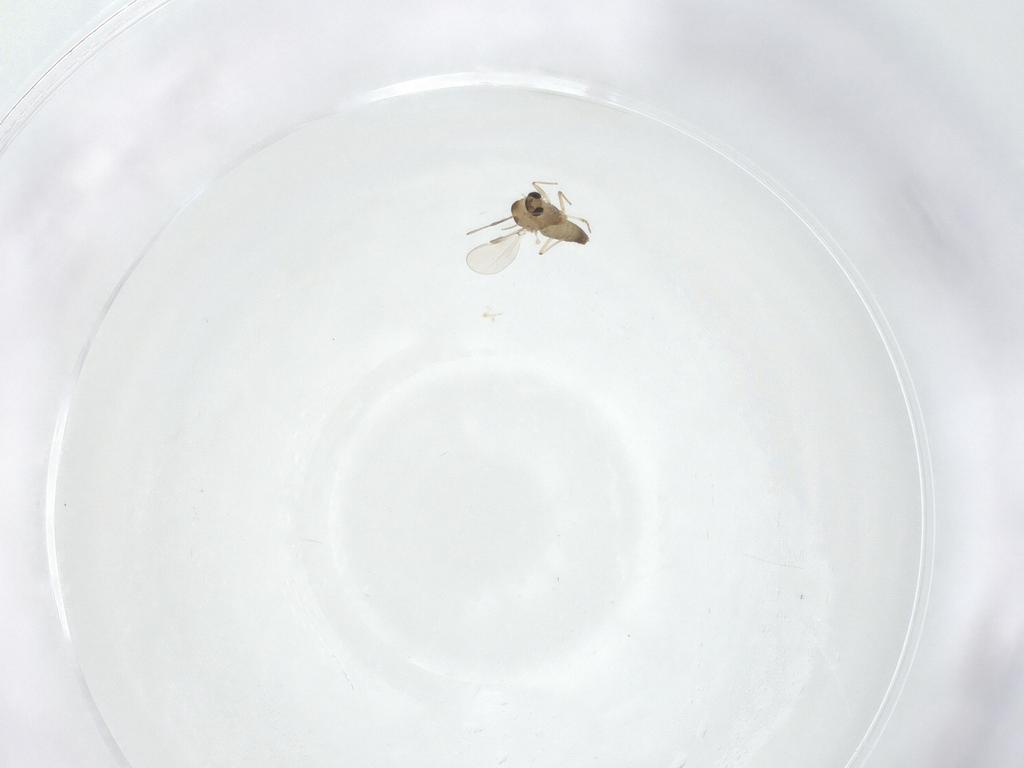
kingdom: Animalia
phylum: Arthropoda
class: Insecta
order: Diptera
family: Chironomidae
